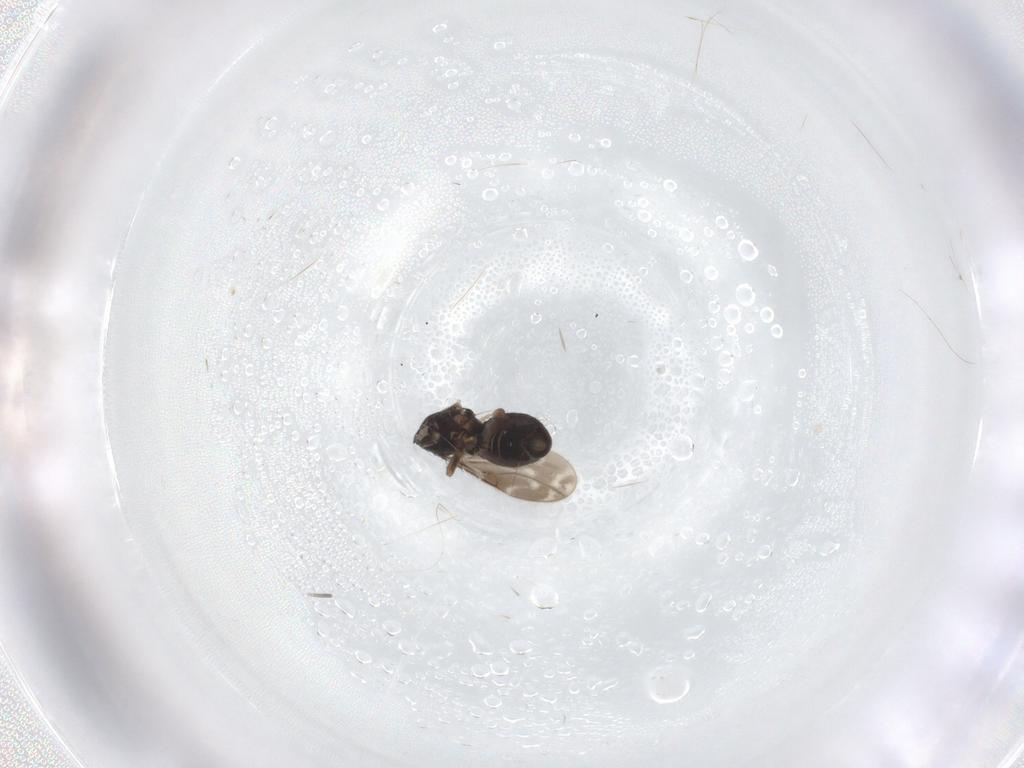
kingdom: Animalia
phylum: Arthropoda
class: Insecta
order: Diptera
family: Sphaeroceridae
